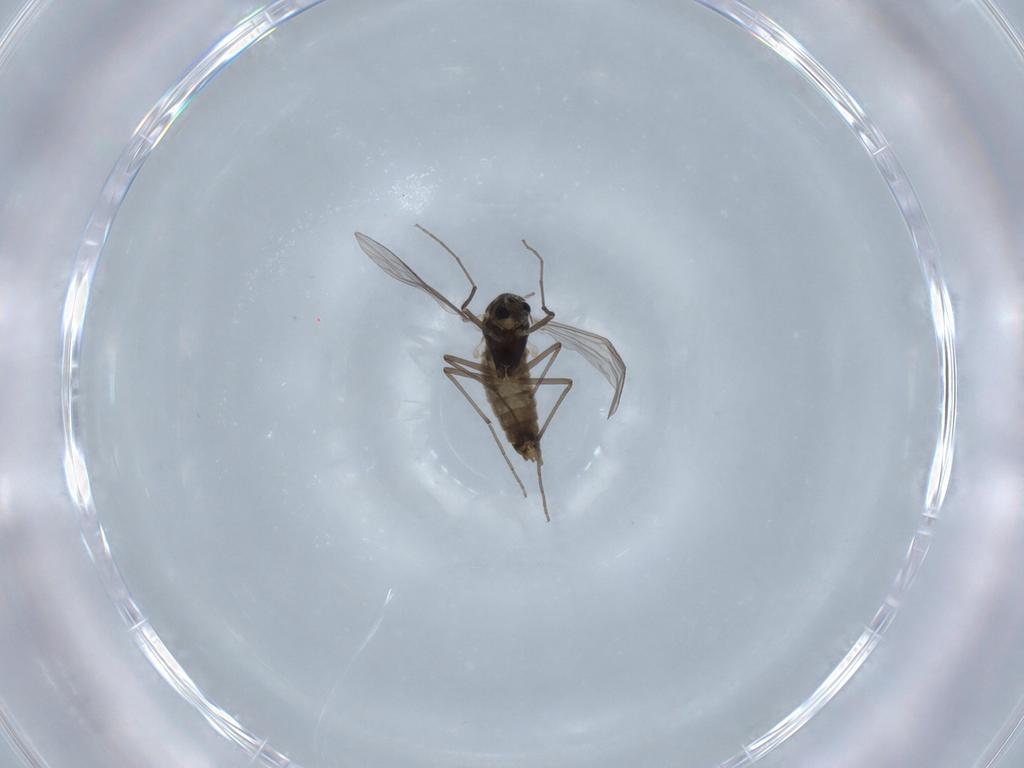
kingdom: Animalia
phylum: Arthropoda
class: Insecta
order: Diptera
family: Chironomidae
